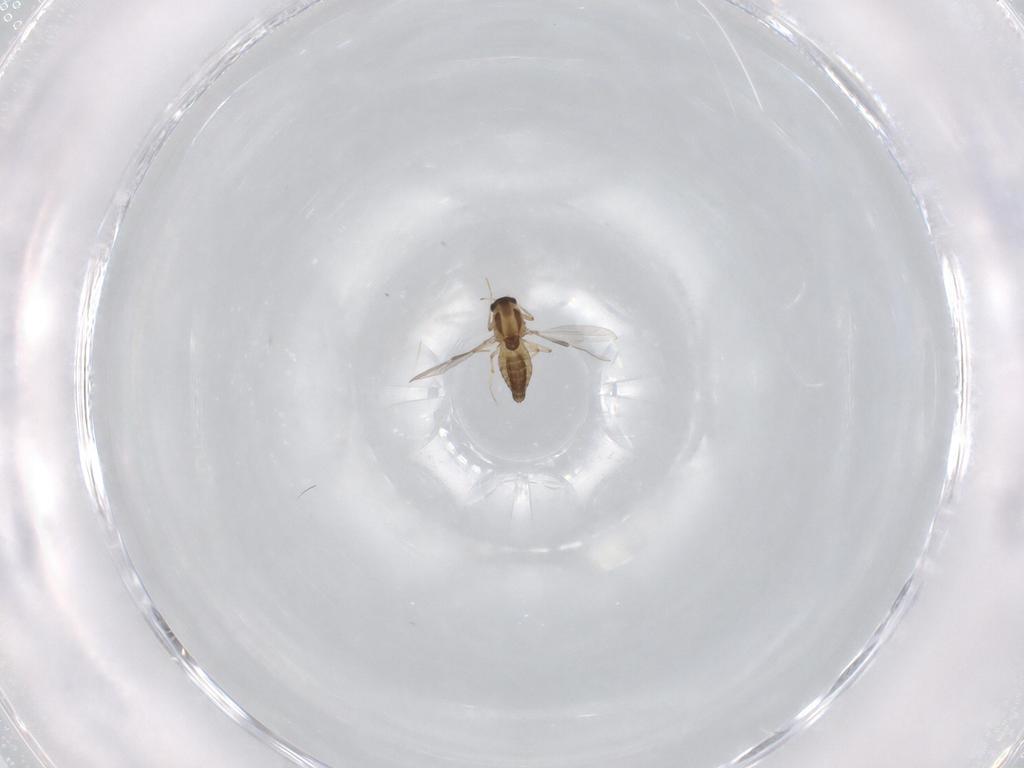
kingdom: Animalia
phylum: Arthropoda
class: Insecta
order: Diptera
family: Chironomidae
